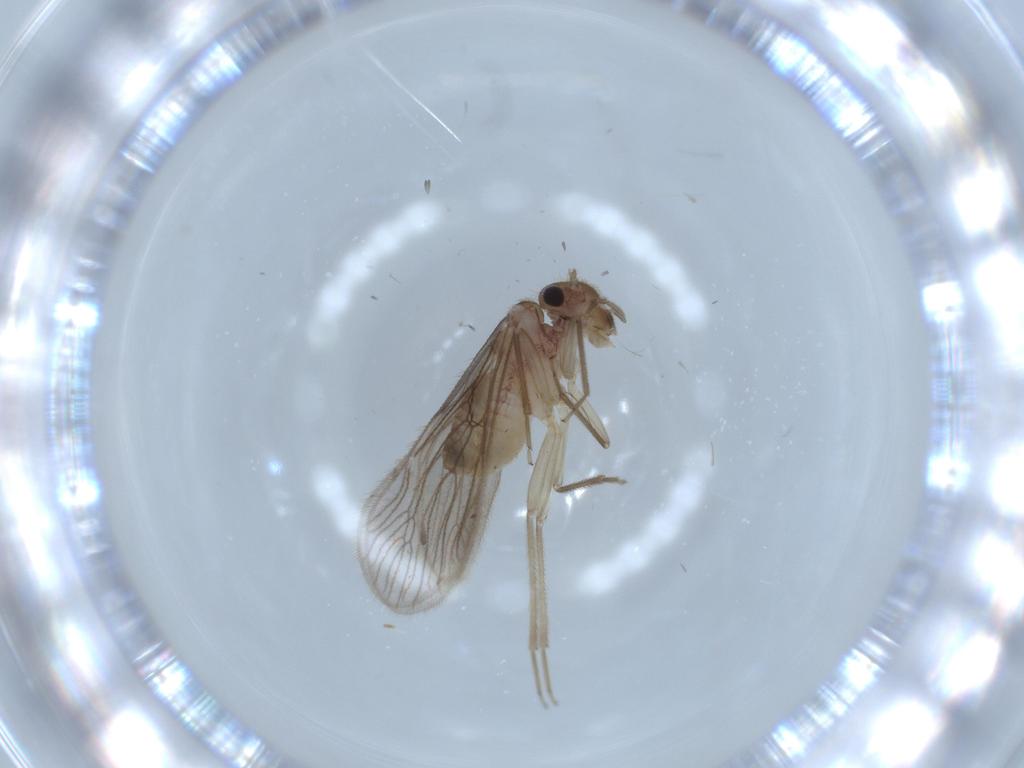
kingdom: Animalia
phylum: Arthropoda
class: Insecta
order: Psocodea
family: Cladiopsocidae
